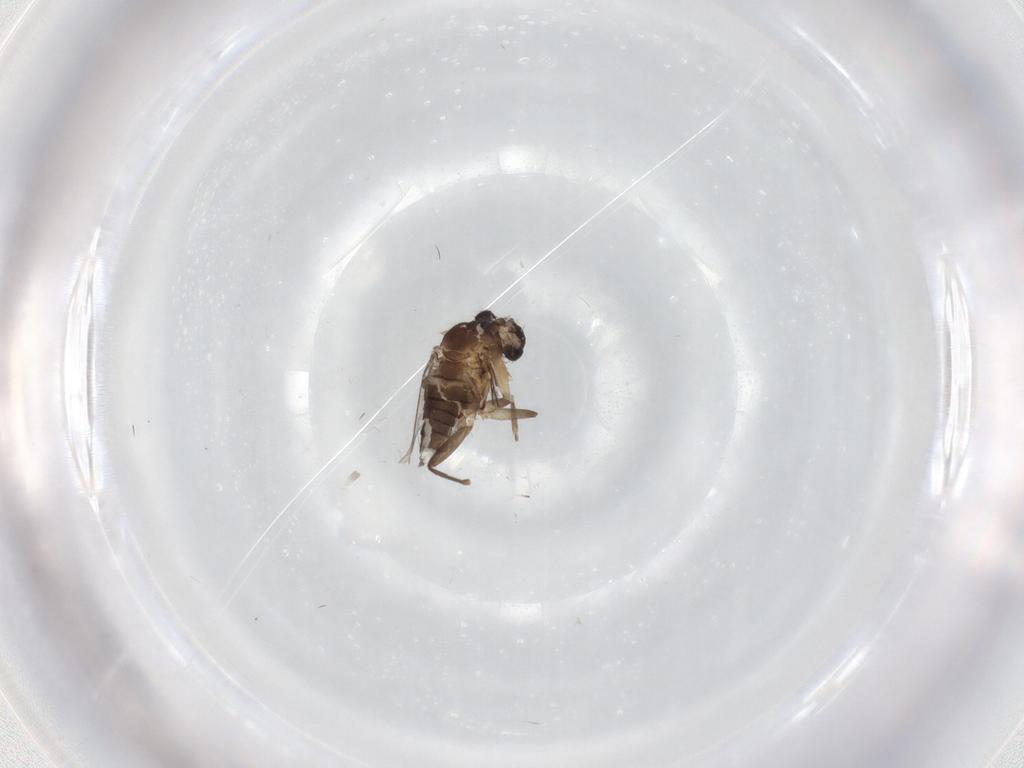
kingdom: Animalia
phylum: Arthropoda
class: Insecta
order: Diptera
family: Phoridae
